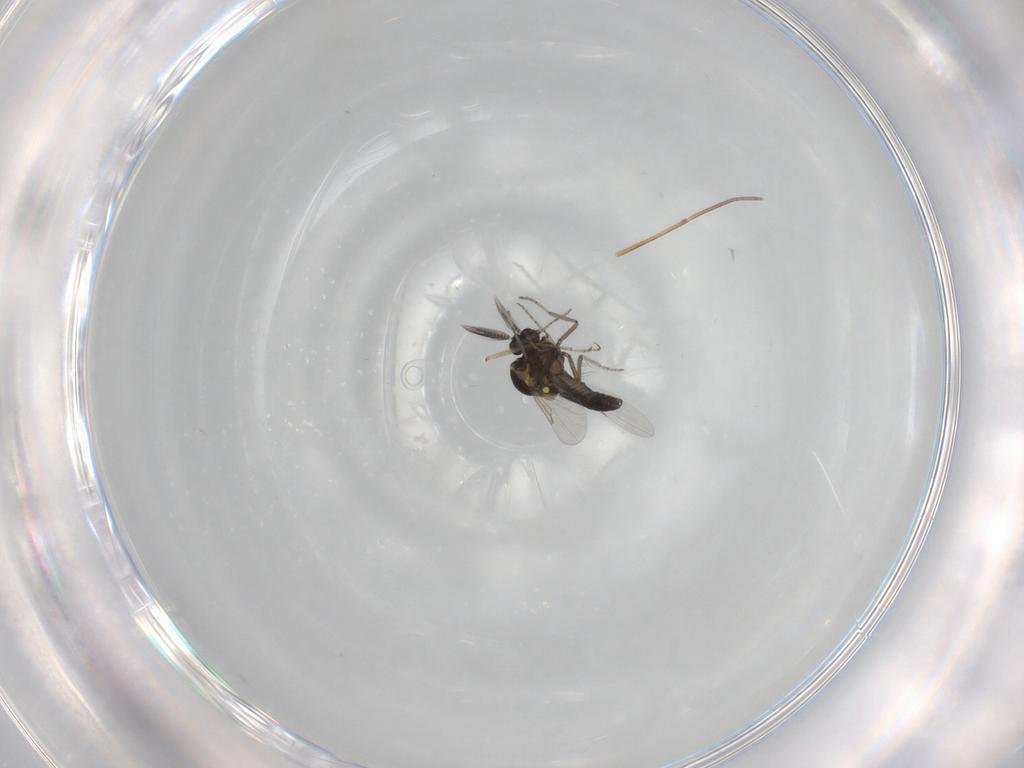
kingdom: Animalia
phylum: Arthropoda
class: Insecta
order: Diptera
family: Ceratopogonidae
